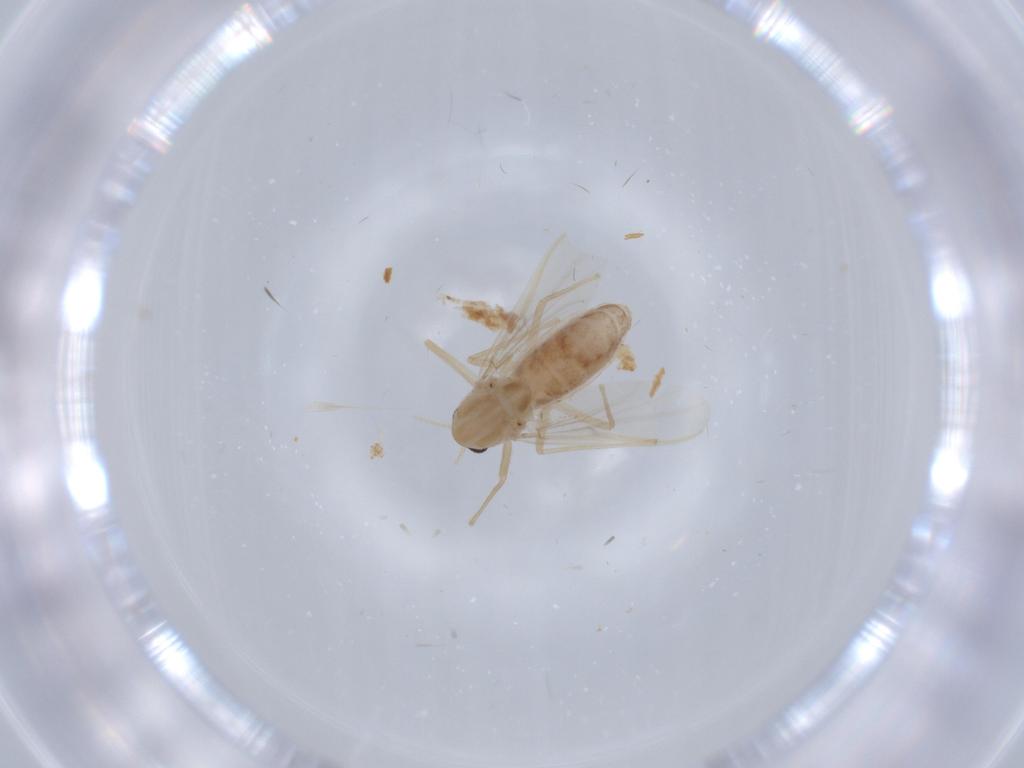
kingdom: Animalia
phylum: Arthropoda
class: Insecta
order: Diptera
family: Chironomidae
